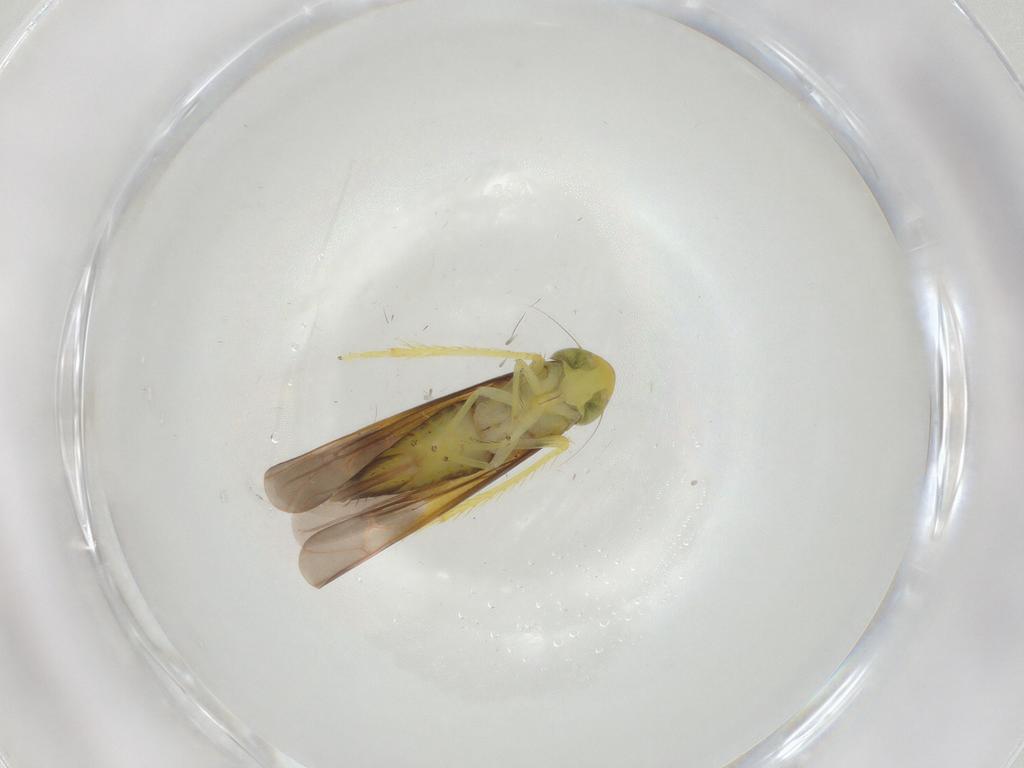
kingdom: Animalia
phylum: Arthropoda
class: Insecta
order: Hemiptera
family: Cicadellidae
